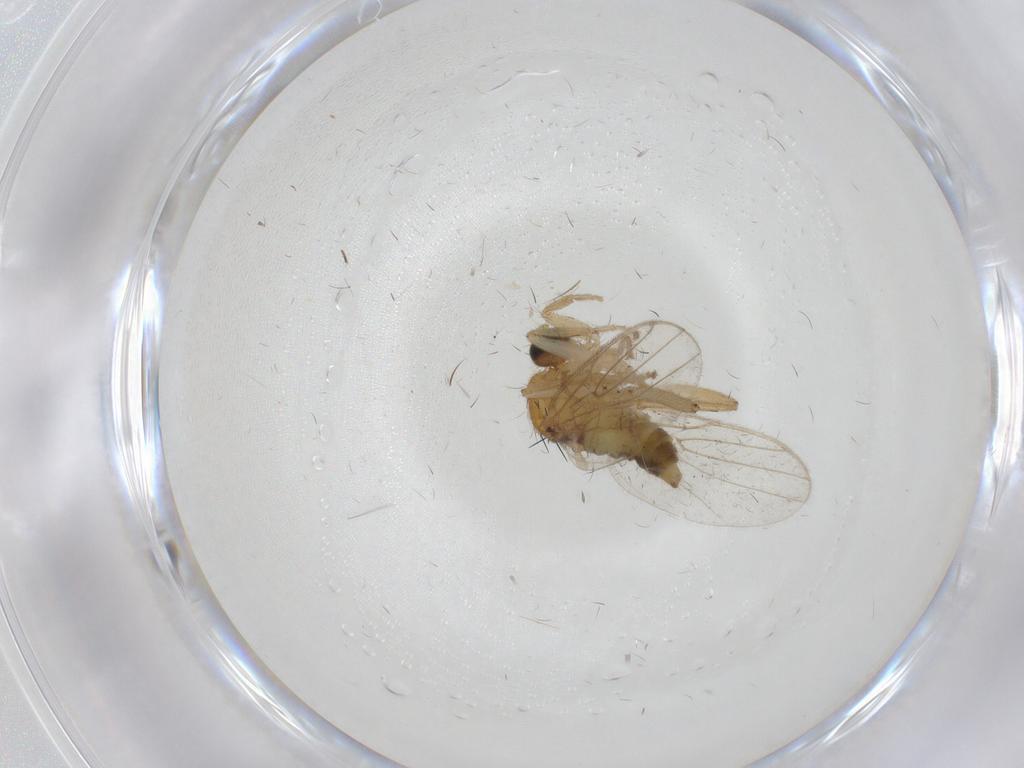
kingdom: Animalia
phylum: Arthropoda
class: Insecta
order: Diptera
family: Hybotidae
